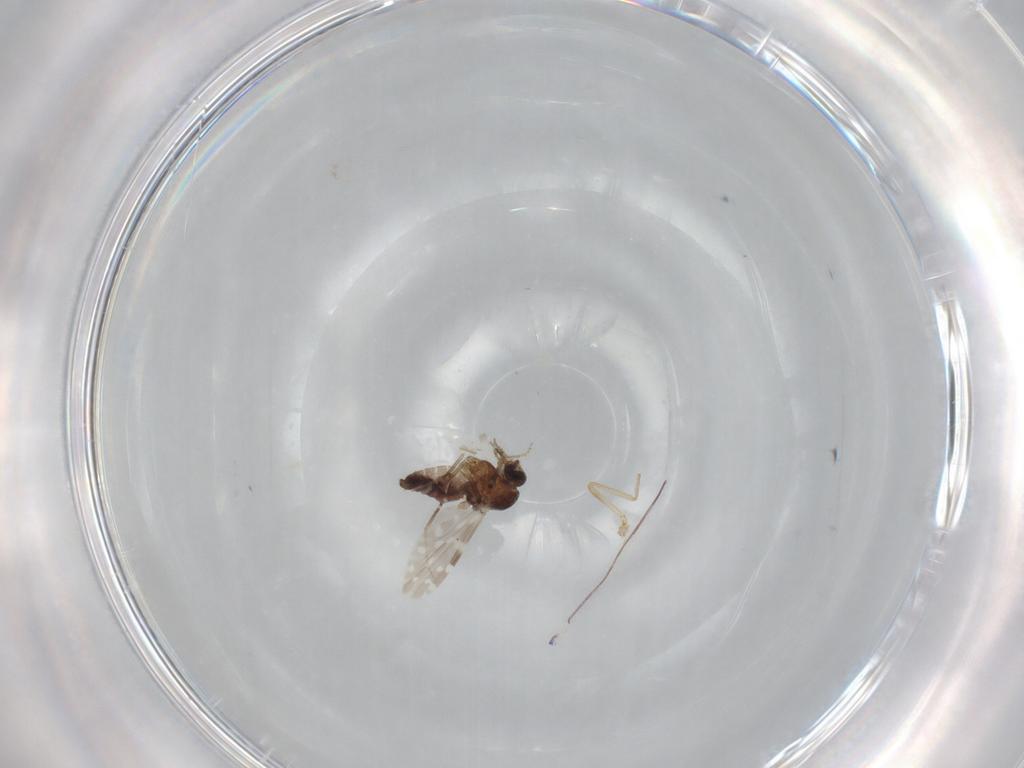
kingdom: Animalia
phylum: Arthropoda
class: Insecta
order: Diptera
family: Ceratopogonidae
